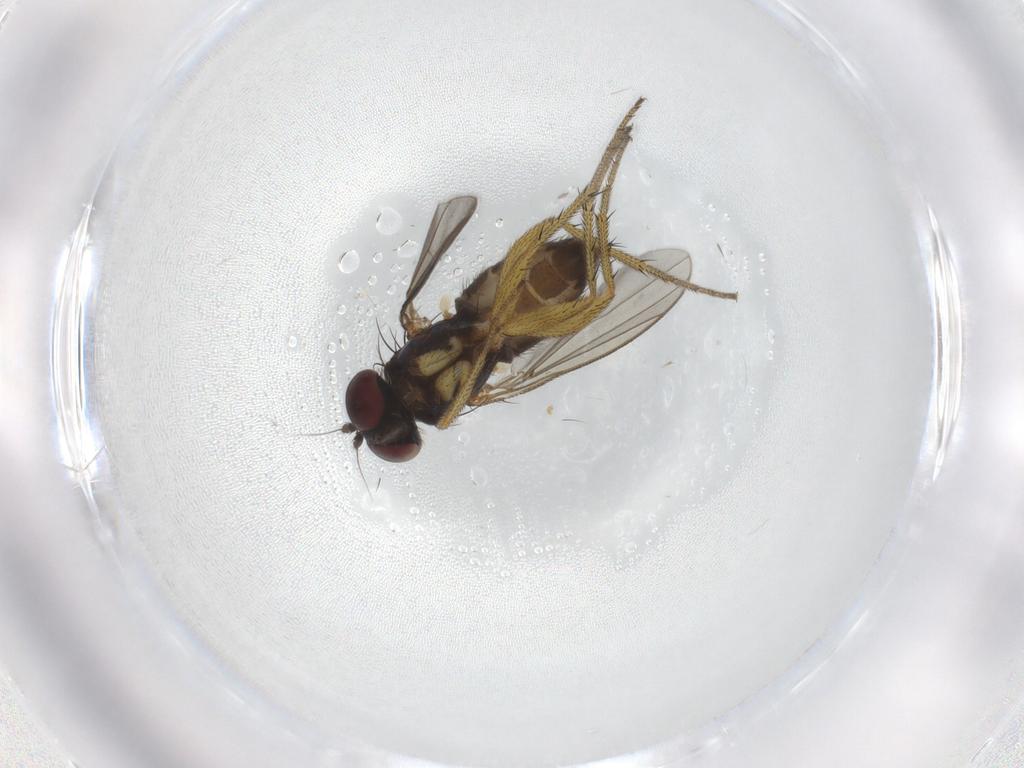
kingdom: Animalia
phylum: Arthropoda
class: Insecta
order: Diptera
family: Dolichopodidae
